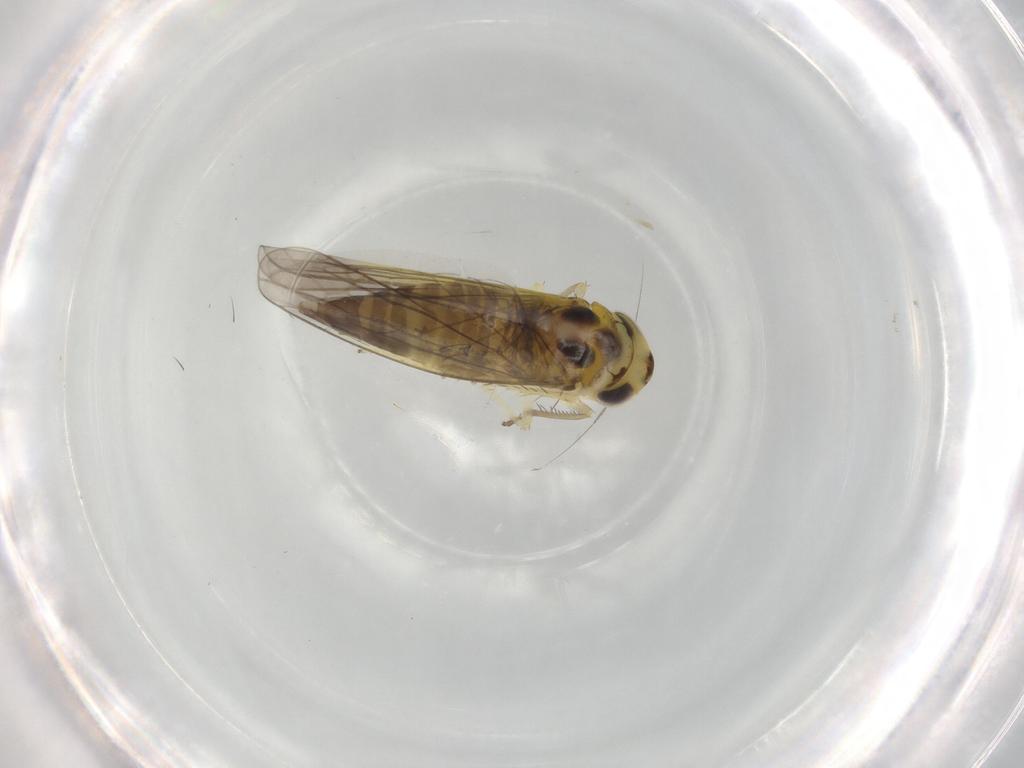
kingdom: Animalia
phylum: Arthropoda
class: Insecta
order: Hemiptera
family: Cicadellidae
